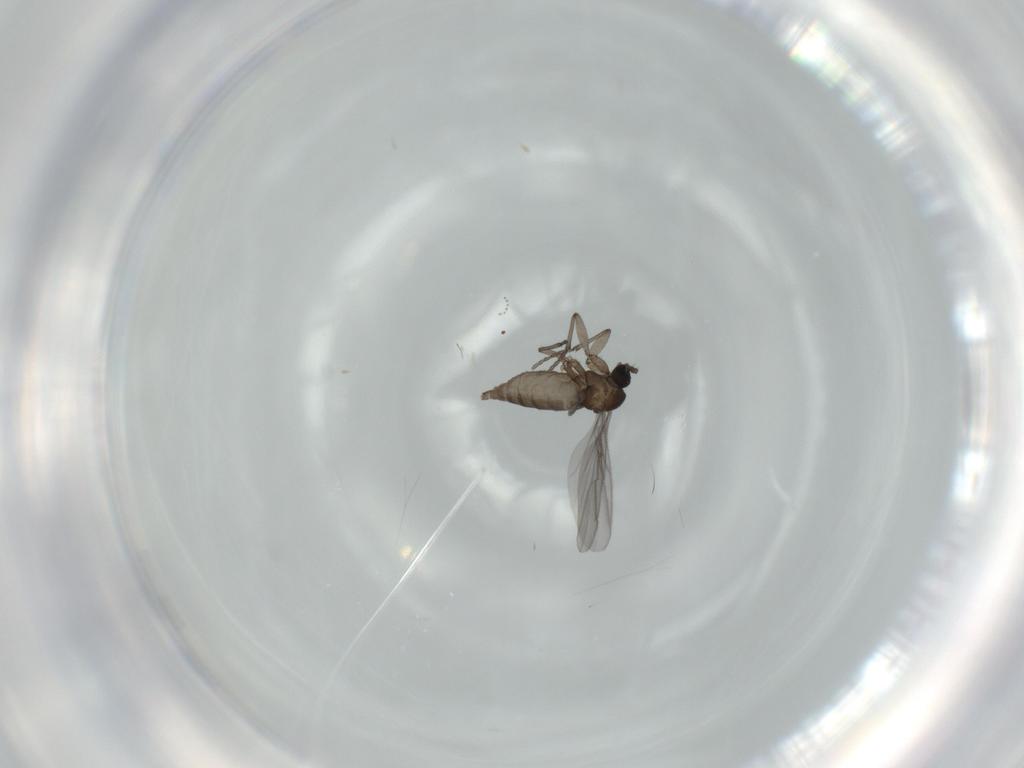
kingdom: Animalia
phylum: Arthropoda
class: Insecta
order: Diptera
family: Sciaridae
